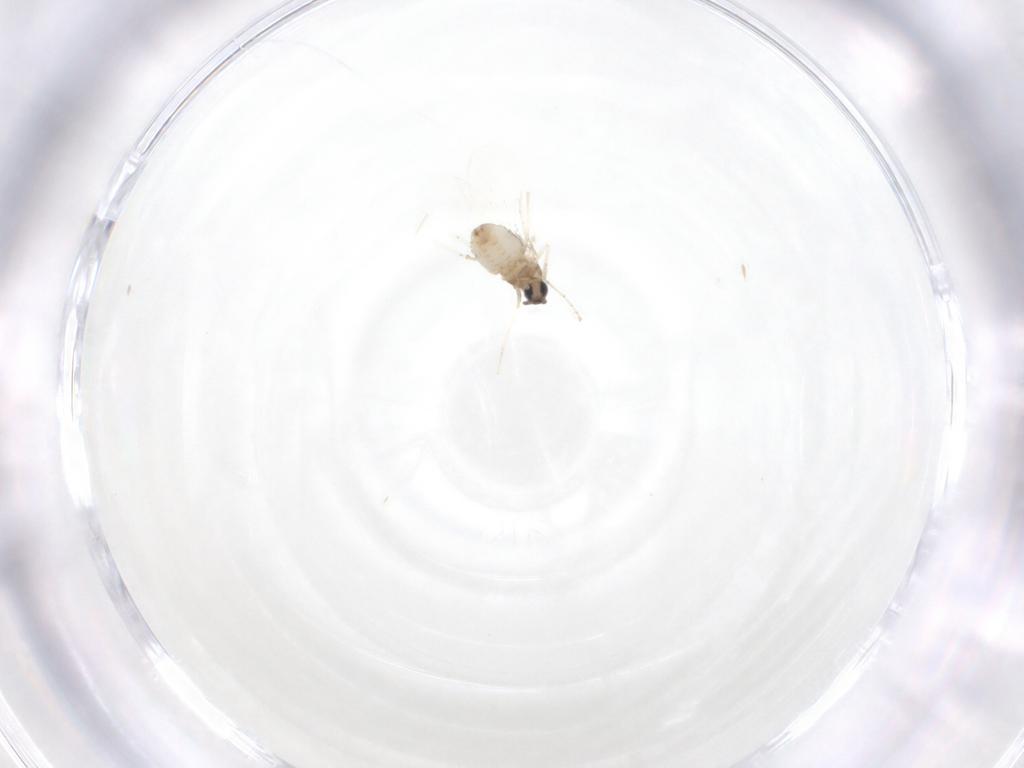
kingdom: Animalia
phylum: Arthropoda
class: Insecta
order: Diptera
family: Cecidomyiidae
